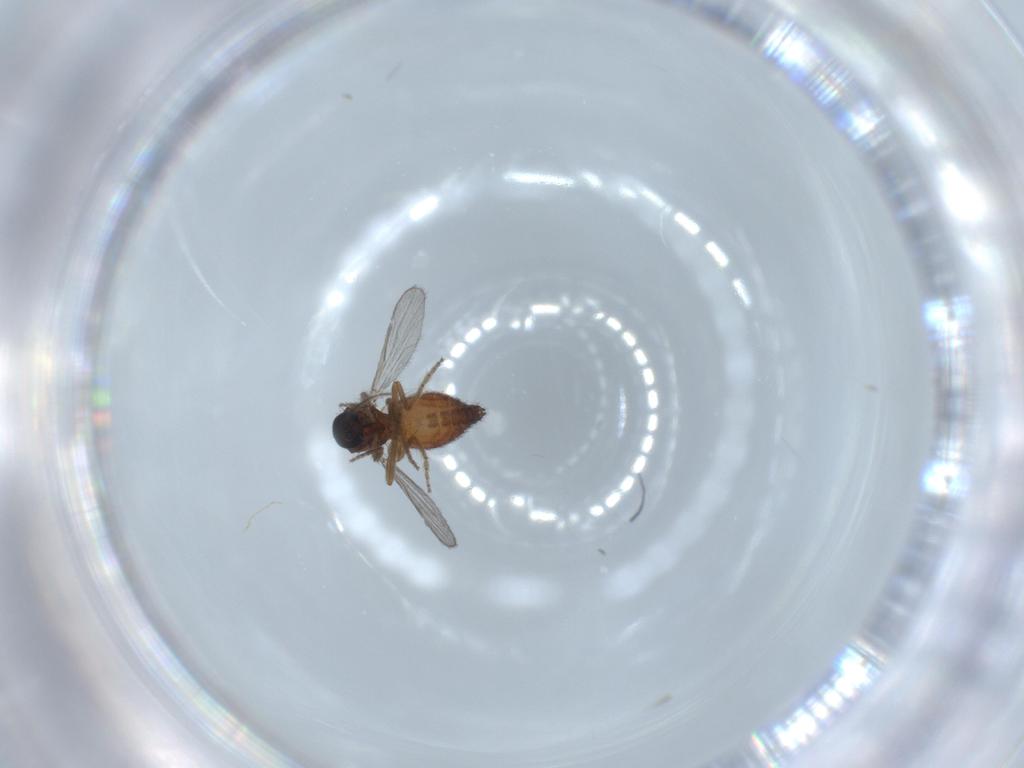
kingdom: Animalia
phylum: Arthropoda
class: Insecta
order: Diptera
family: Ceratopogonidae
